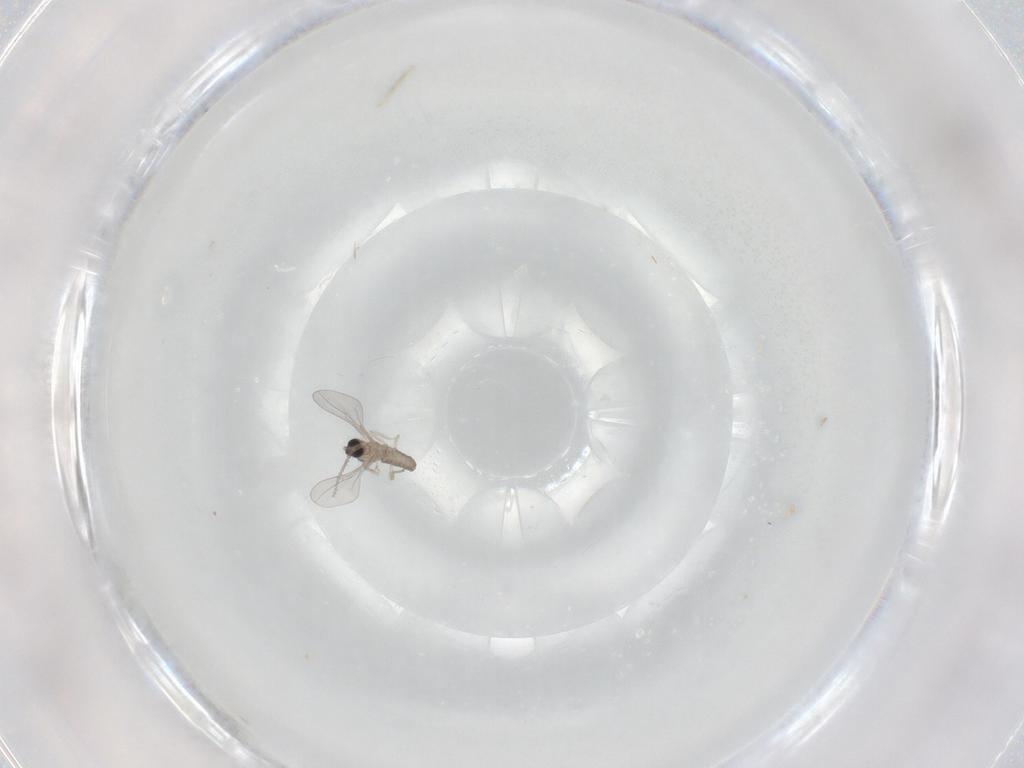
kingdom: Animalia
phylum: Arthropoda
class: Insecta
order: Diptera
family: Cecidomyiidae
